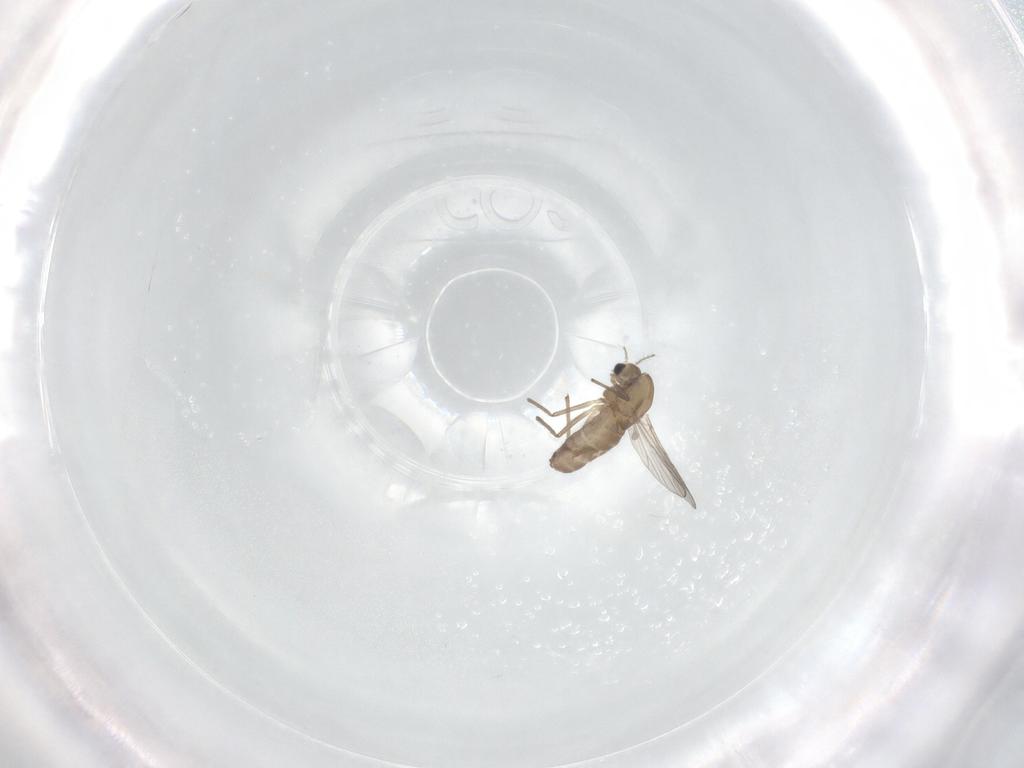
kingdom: Animalia
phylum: Arthropoda
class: Insecta
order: Diptera
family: Chironomidae
